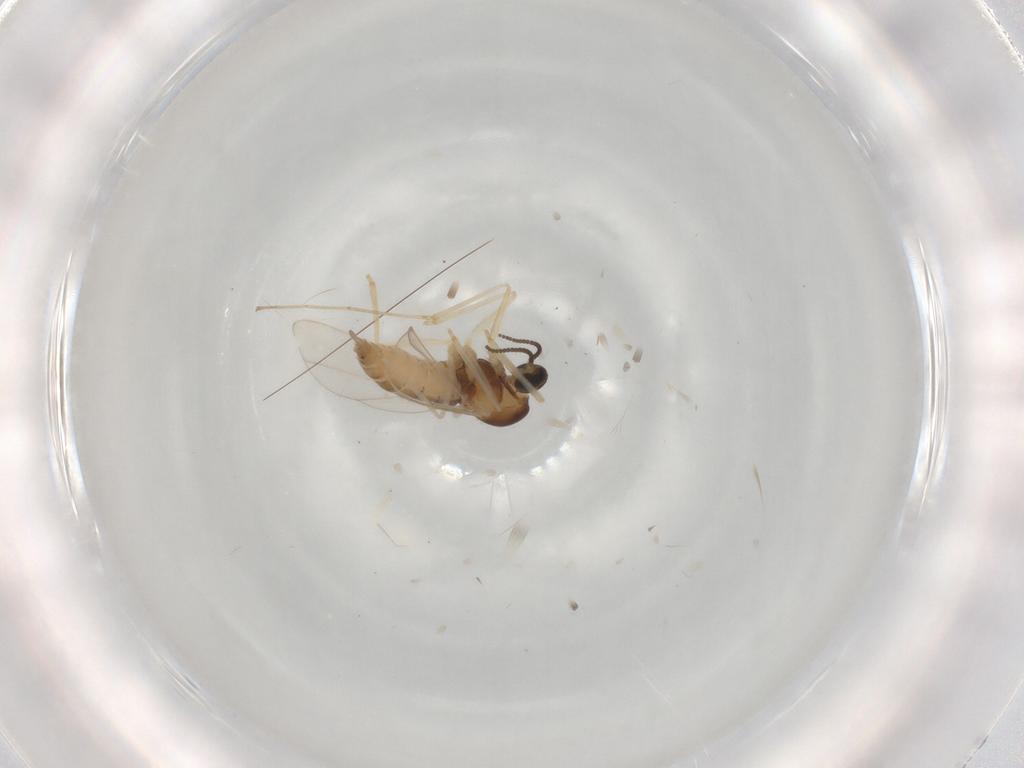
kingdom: Animalia
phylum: Arthropoda
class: Insecta
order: Diptera
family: Cecidomyiidae
